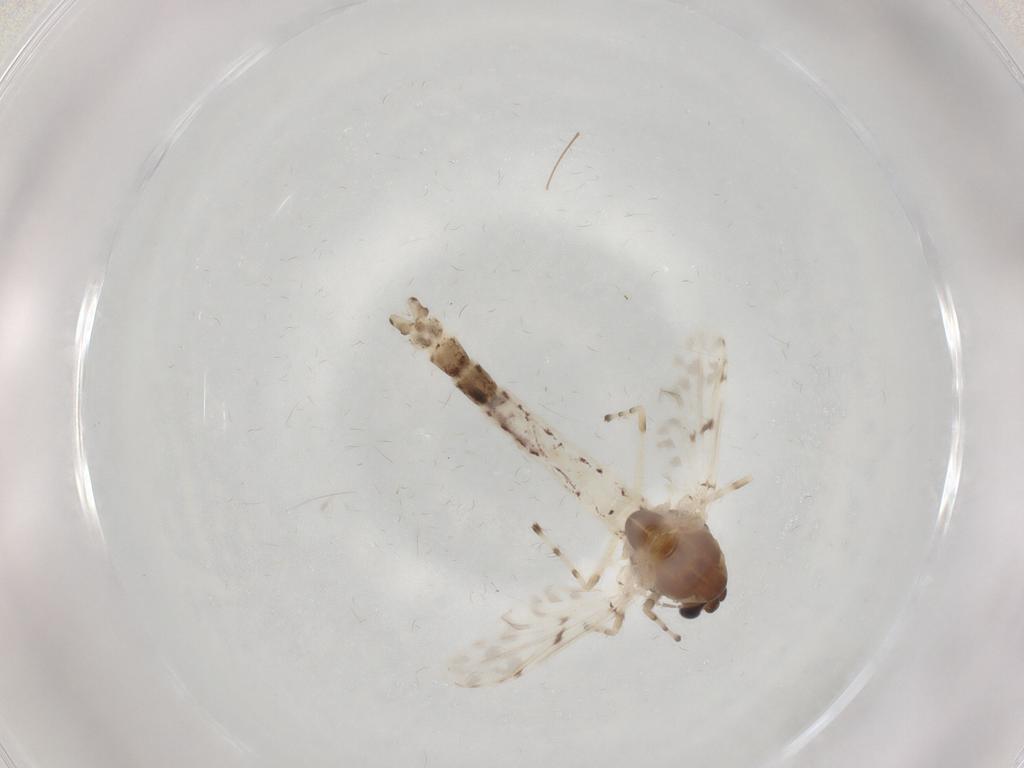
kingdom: Animalia
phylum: Arthropoda
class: Insecta
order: Diptera
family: Chironomidae
